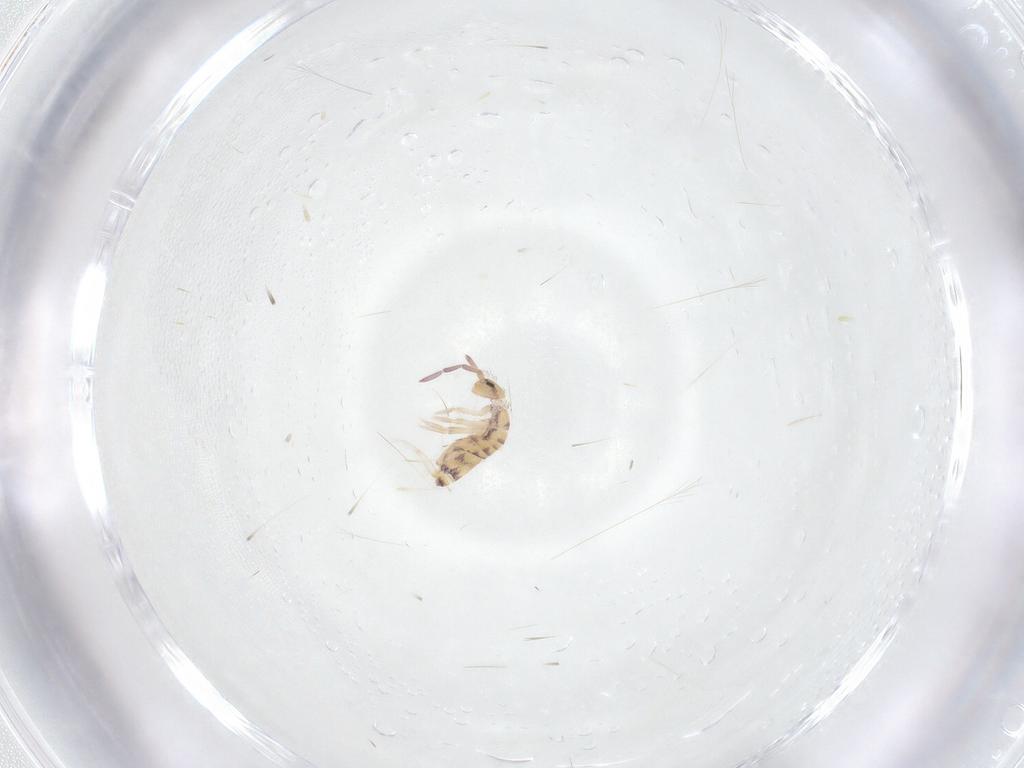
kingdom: Animalia
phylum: Arthropoda
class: Collembola
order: Entomobryomorpha
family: Entomobryidae
